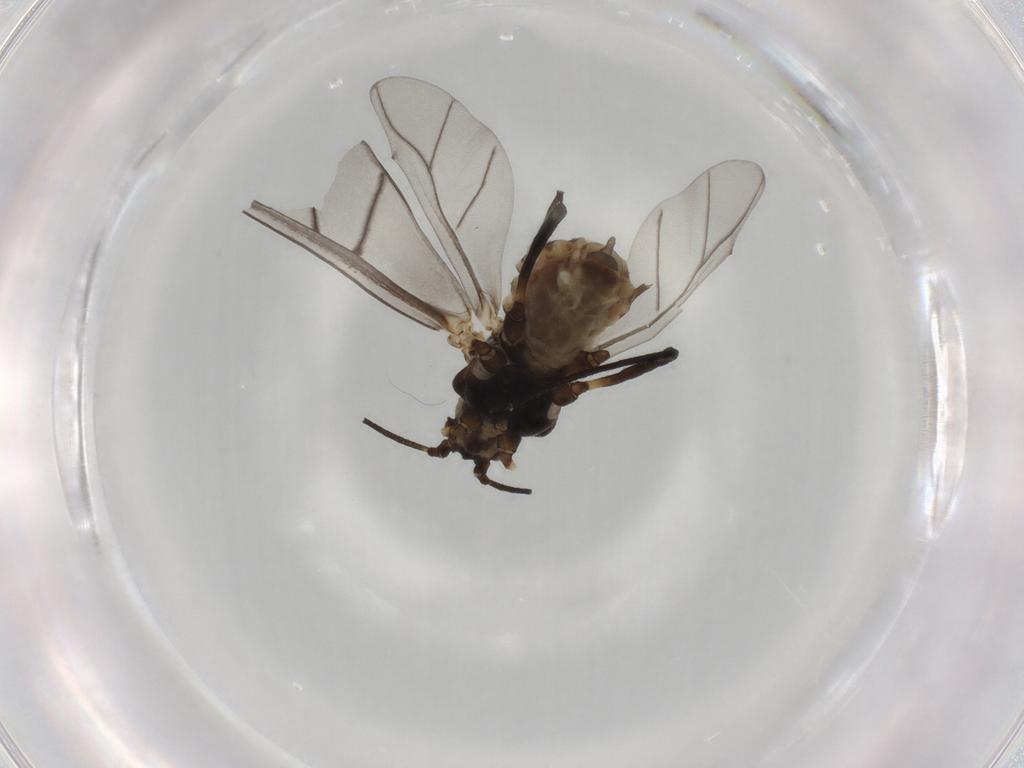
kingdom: Animalia
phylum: Arthropoda
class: Insecta
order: Hemiptera
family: Aphididae
